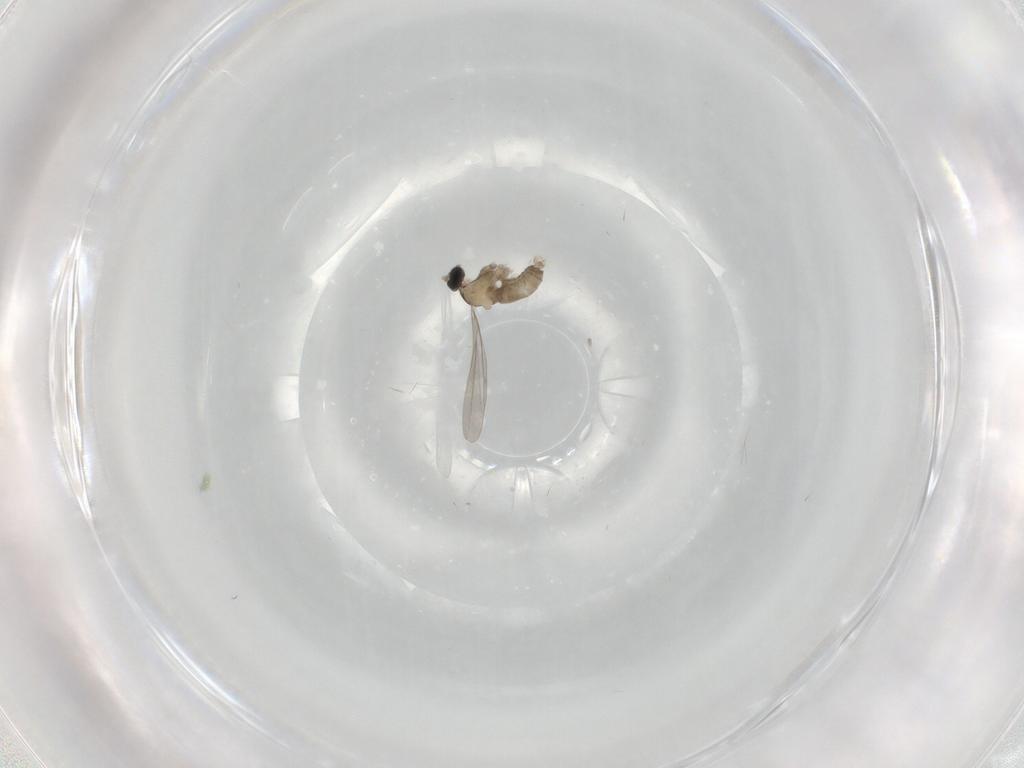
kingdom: Animalia
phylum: Arthropoda
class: Insecta
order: Diptera
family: Cecidomyiidae
